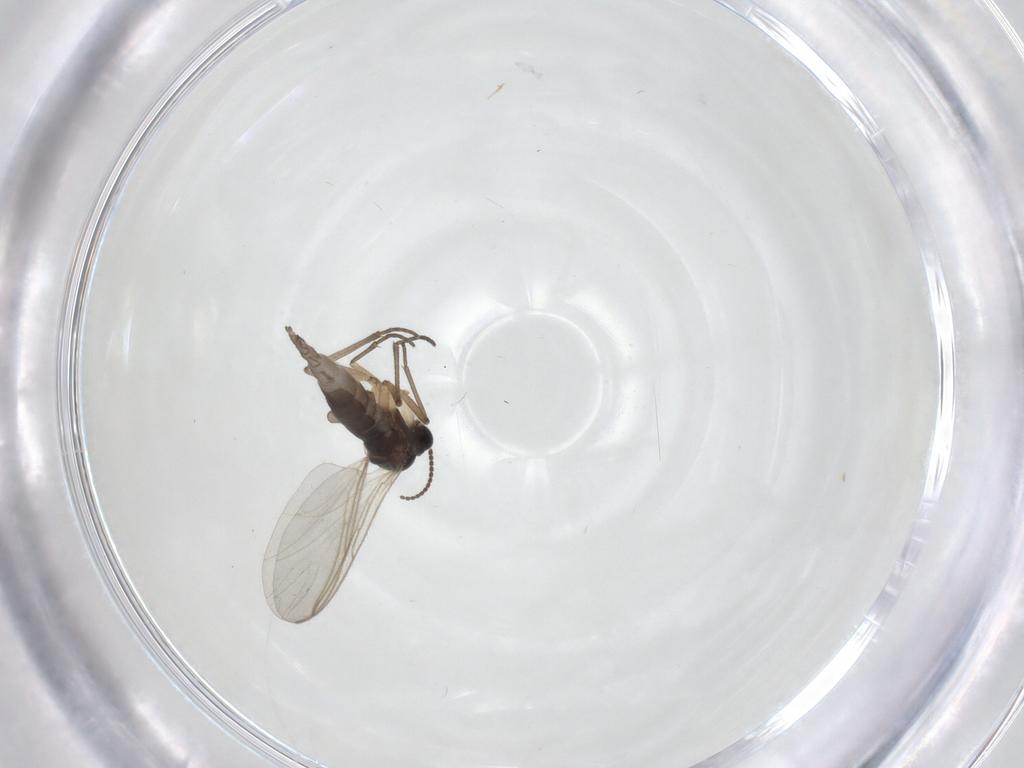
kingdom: Animalia
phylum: Arthropoda
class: Insecta
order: Diptera
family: Sciaridae
